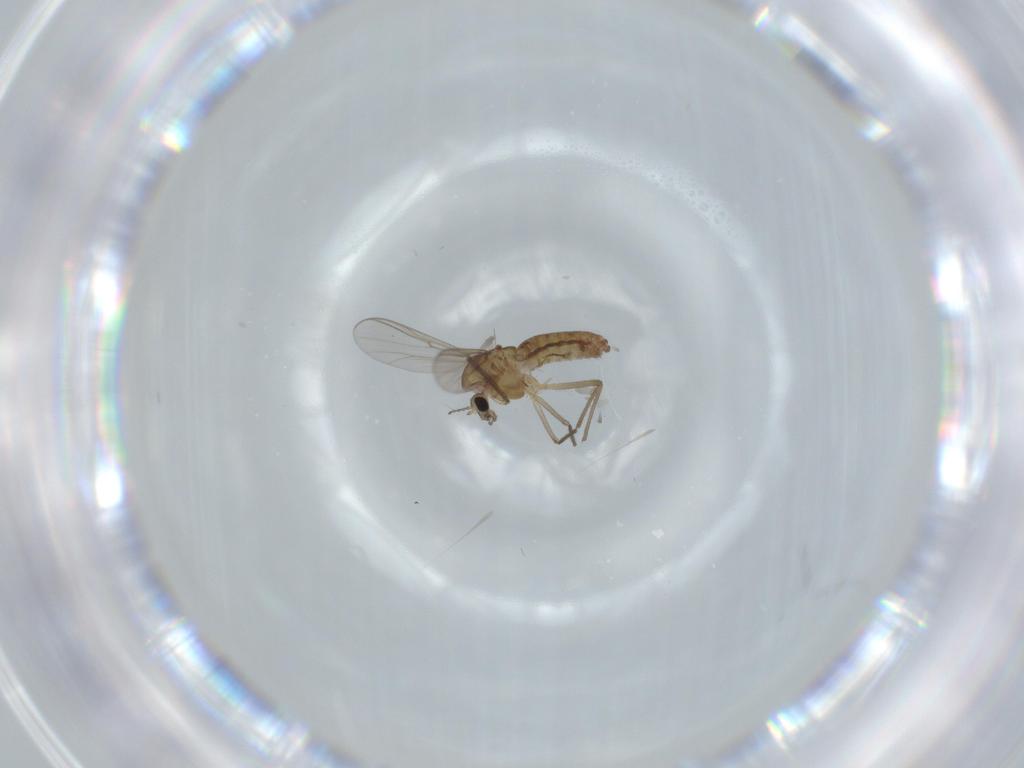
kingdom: Animalia
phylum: Arthropoda
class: Insecta
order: Diptera
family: Chironomidae
